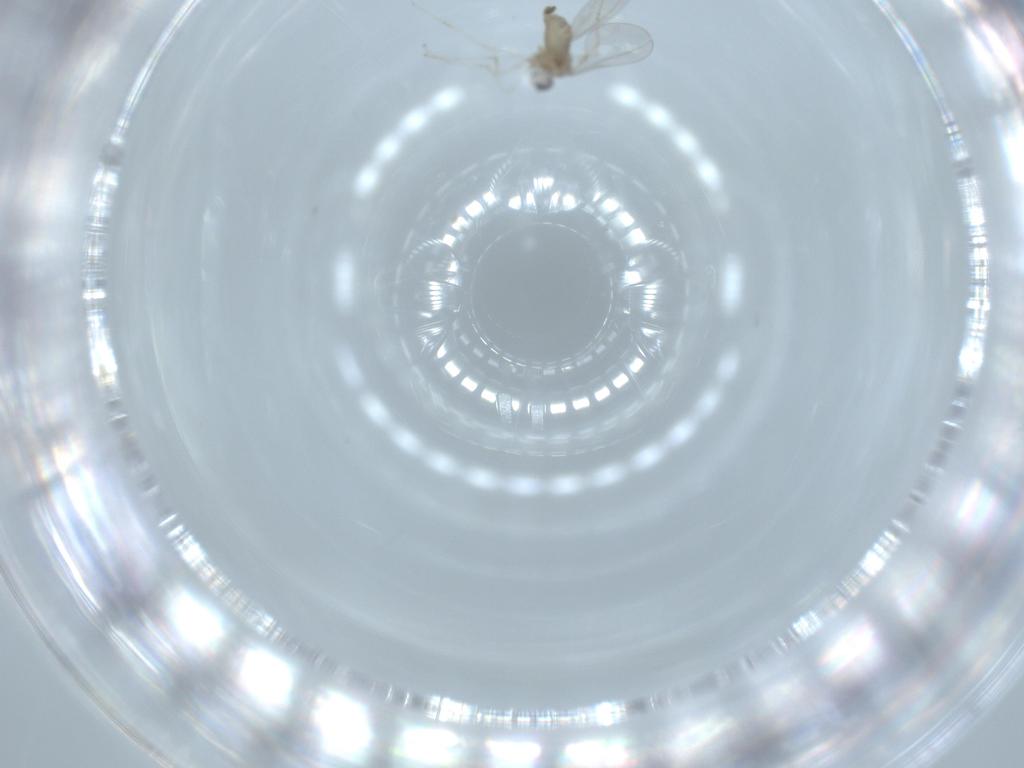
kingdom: Animalia
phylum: Arthropoda
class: Insecta
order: Diptera
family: Cecidomyiidae
